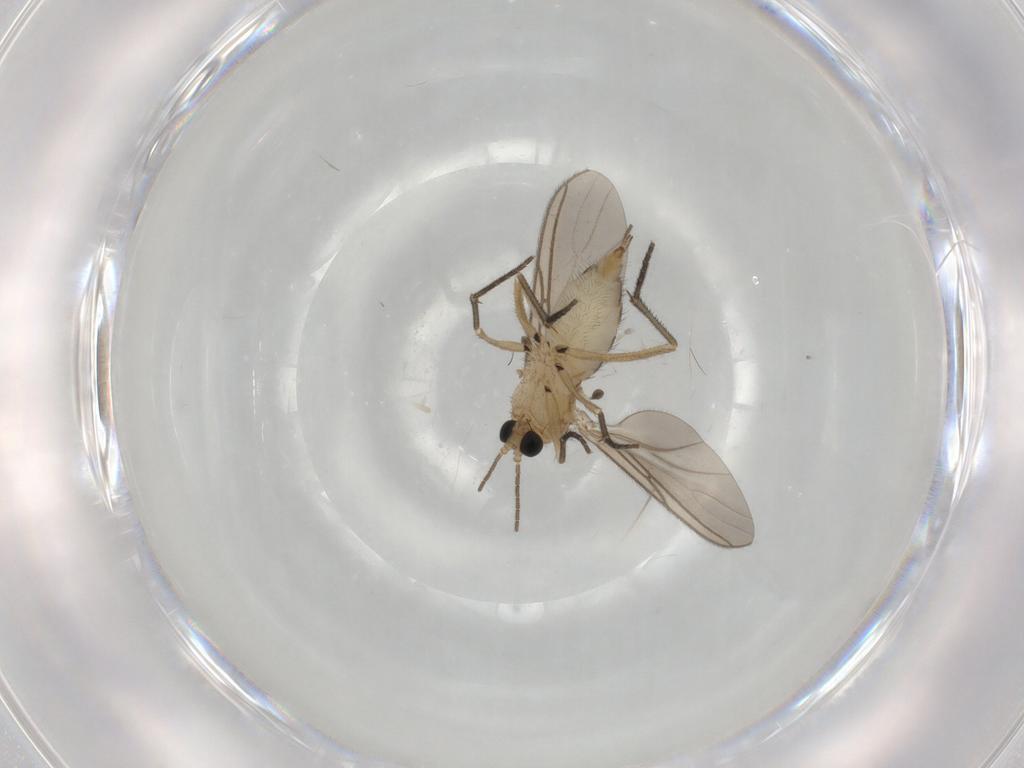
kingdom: Animalia
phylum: Arthropoda
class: Insecta
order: Diptera
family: Sciaridae
